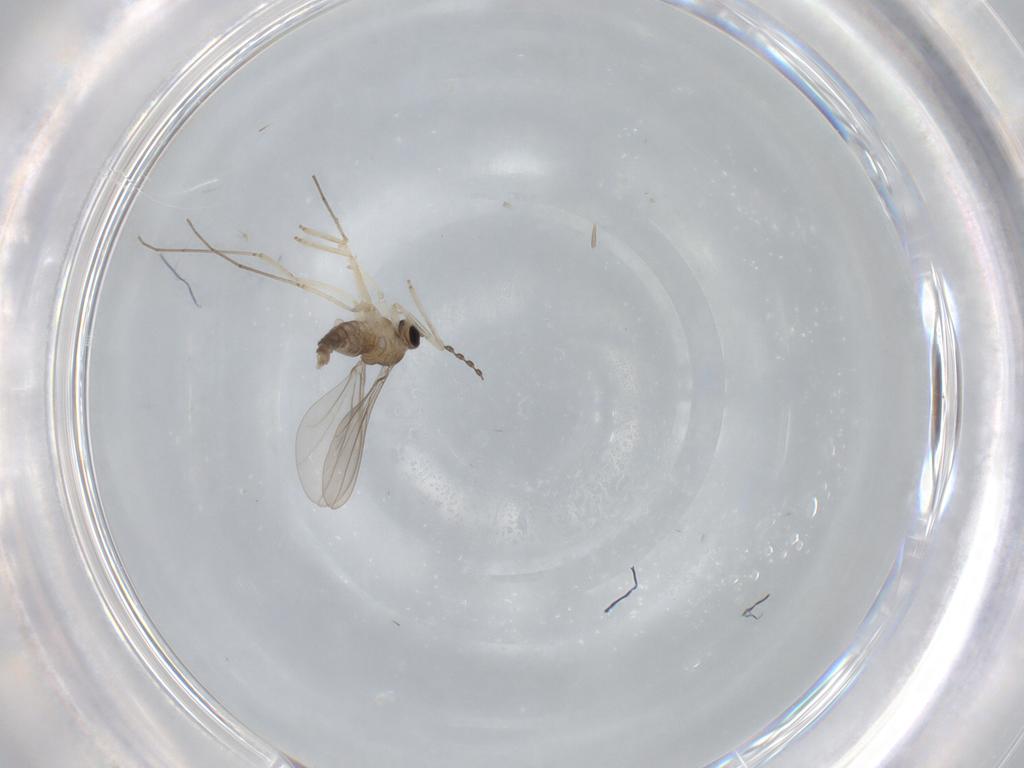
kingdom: Animalia
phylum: Arthropoda
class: Insecta
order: Diptera
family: Cecidomyiidae
